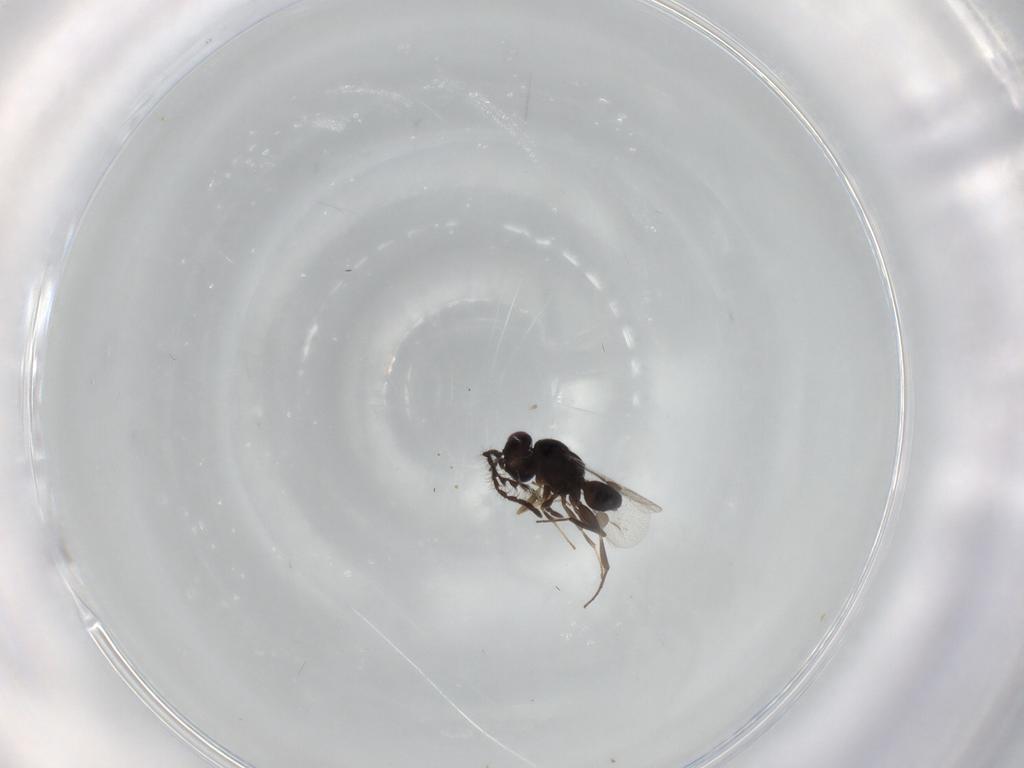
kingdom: Animalia
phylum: Arthropoda
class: Insecta
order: Hymenoptera
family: Megaspilidae
